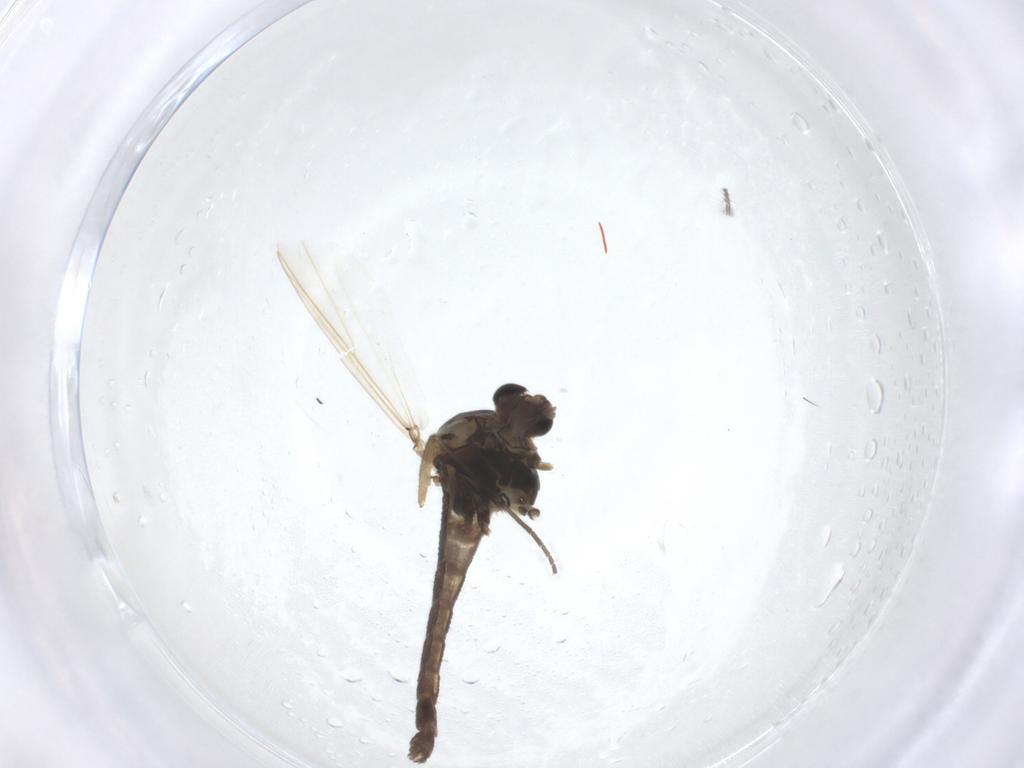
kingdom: Animalia
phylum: Arthropoda
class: Insecta
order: Diptera
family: Chironomidae
